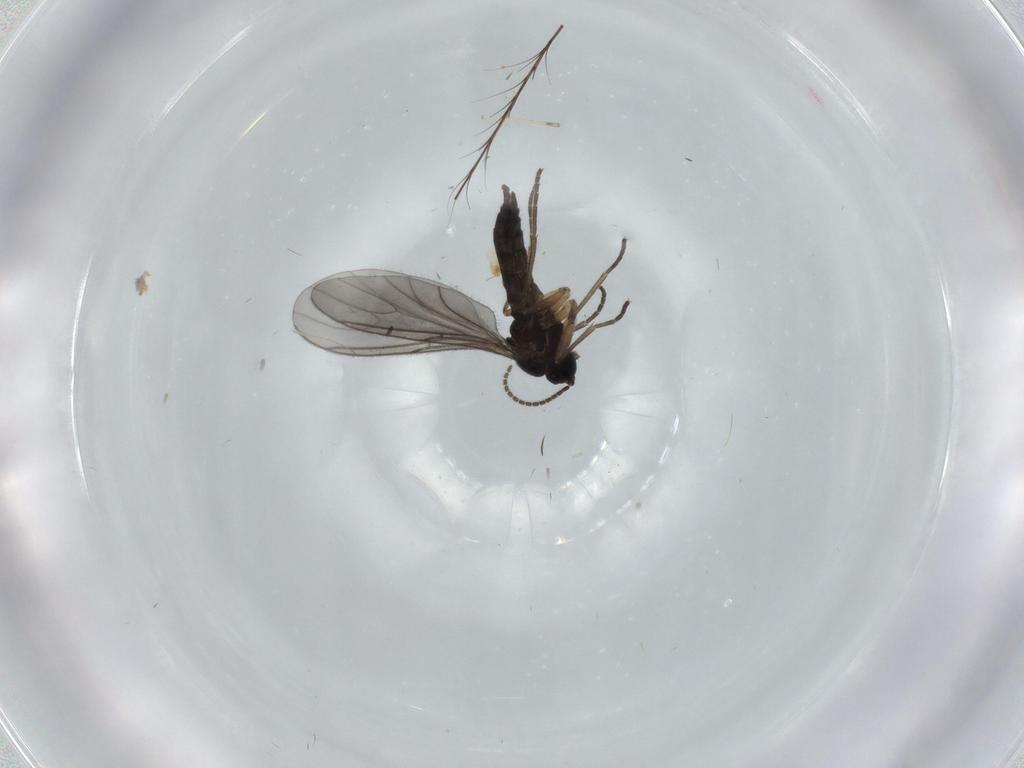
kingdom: Animalia
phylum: Arthropoda
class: Insecta
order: Diptera
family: Sciaridae
